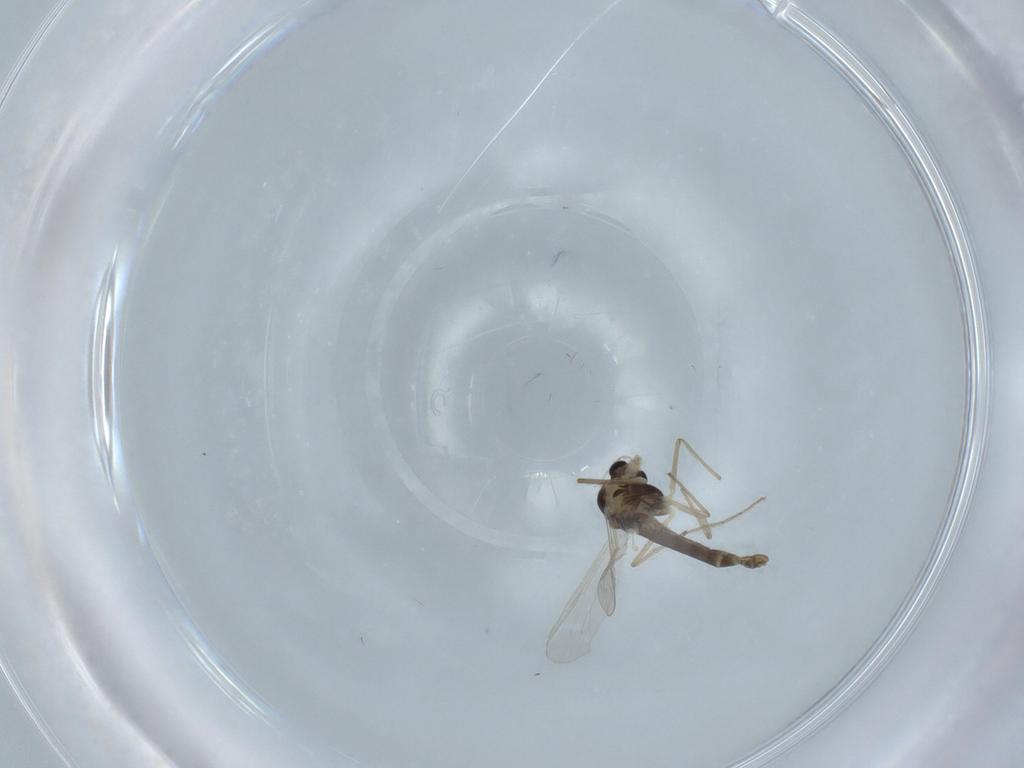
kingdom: Animalia
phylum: Arthropoda
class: Insecta
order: Diptera
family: Chironomidae
